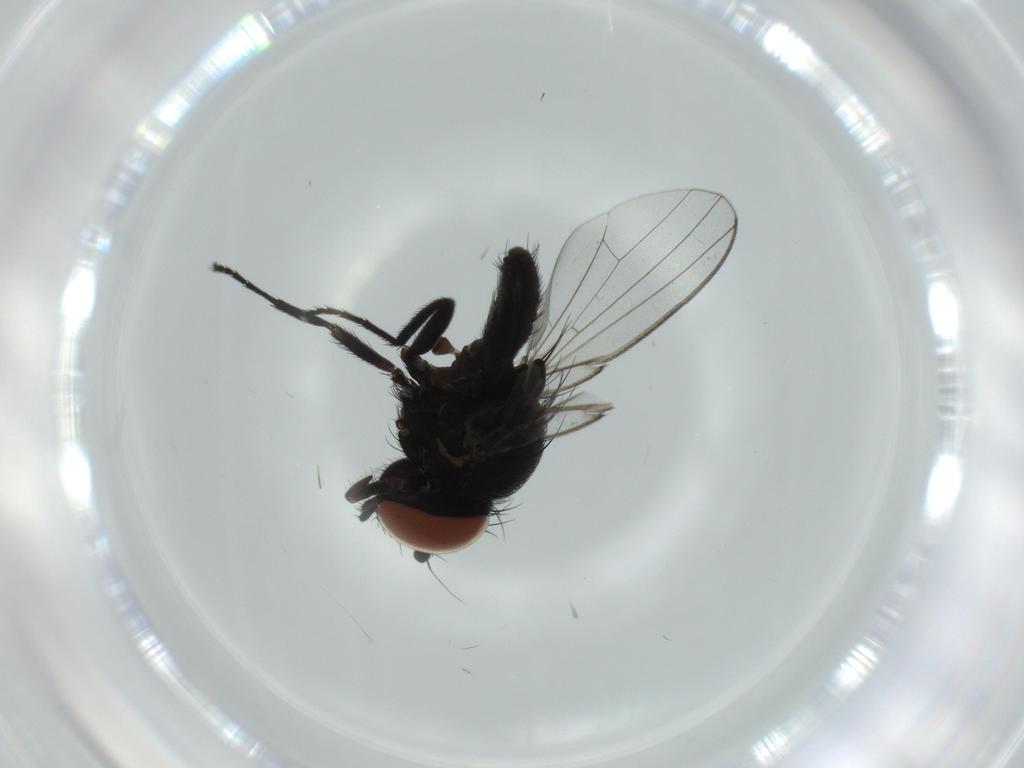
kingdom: Animalia
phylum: Arthropoda
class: Insecta
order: Diptera
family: Milichiidae
